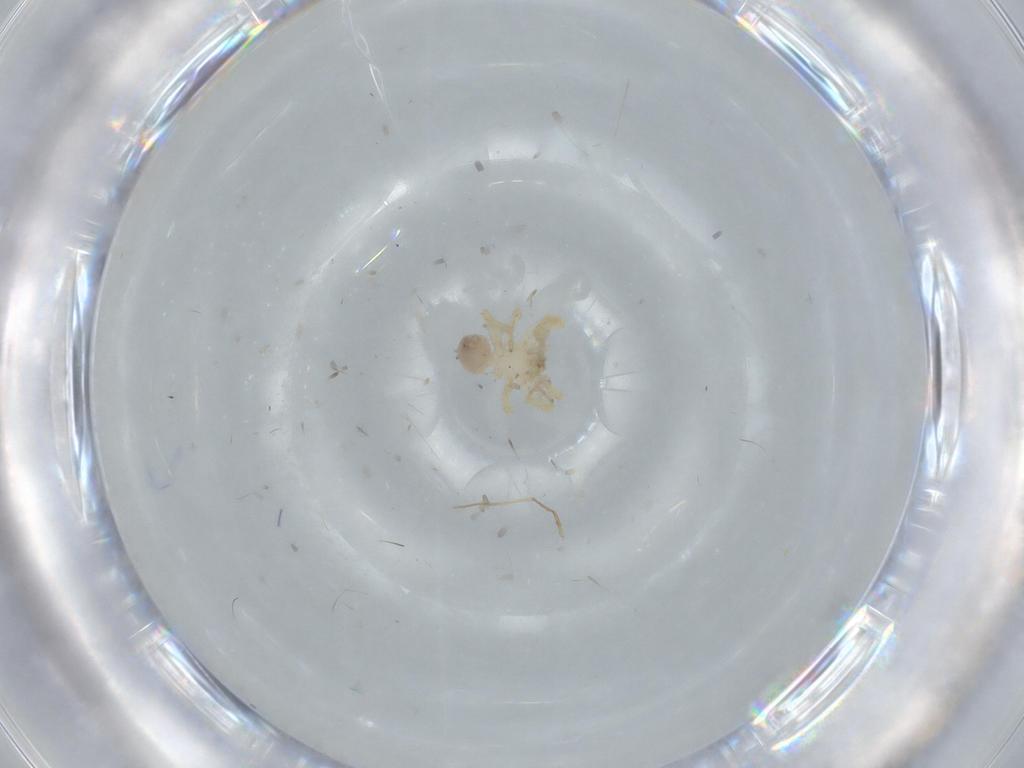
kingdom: Animalia
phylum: Arthropoda
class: Arachnida
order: Araneae
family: Oonopidae
